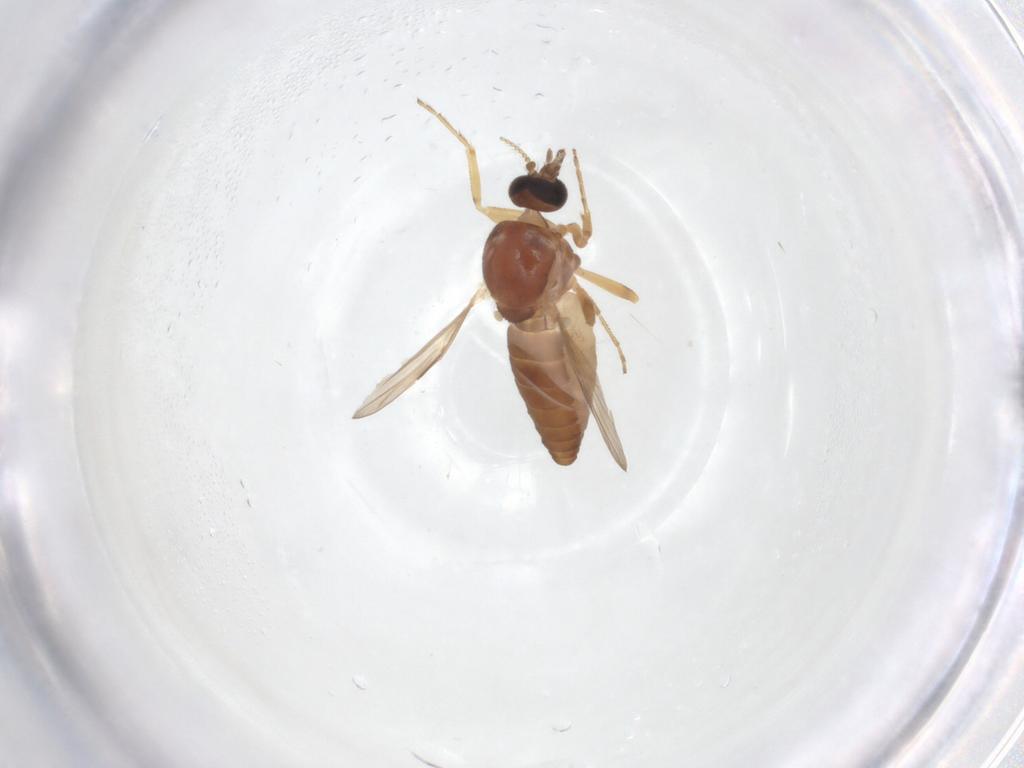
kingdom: Animalia
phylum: Arthropoda
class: Insecta
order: Diptera
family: Ceratopogonidae
